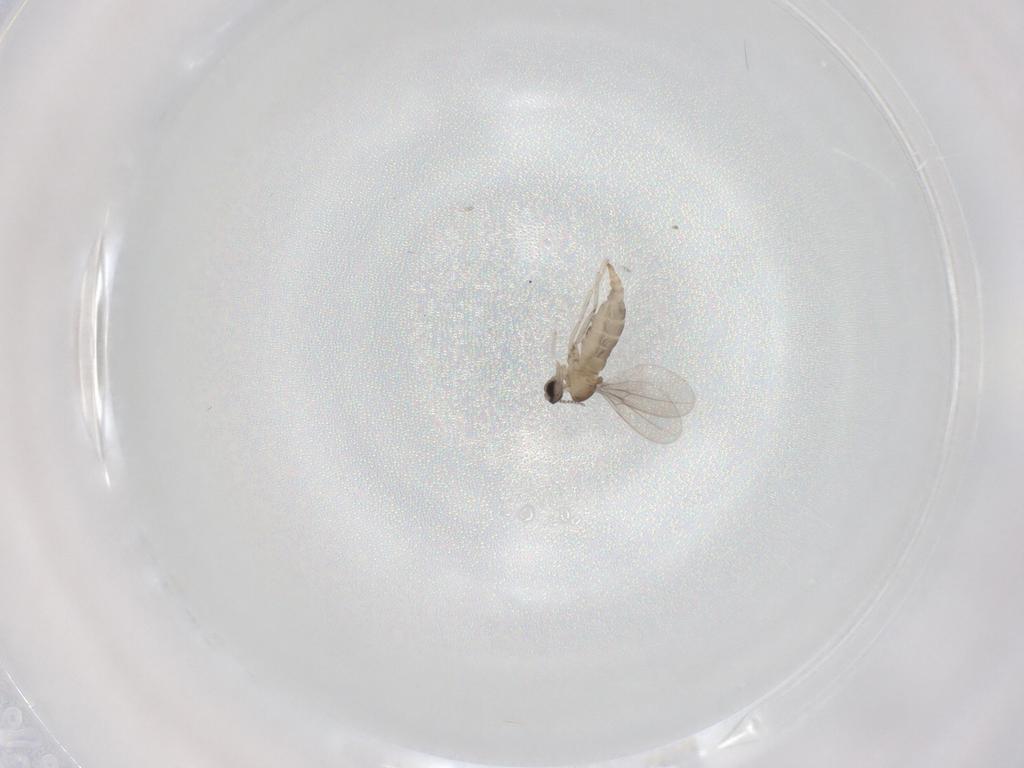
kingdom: Animalia
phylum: Arthropoda
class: Insecta
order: Diptera
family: Cecidomyiidae
